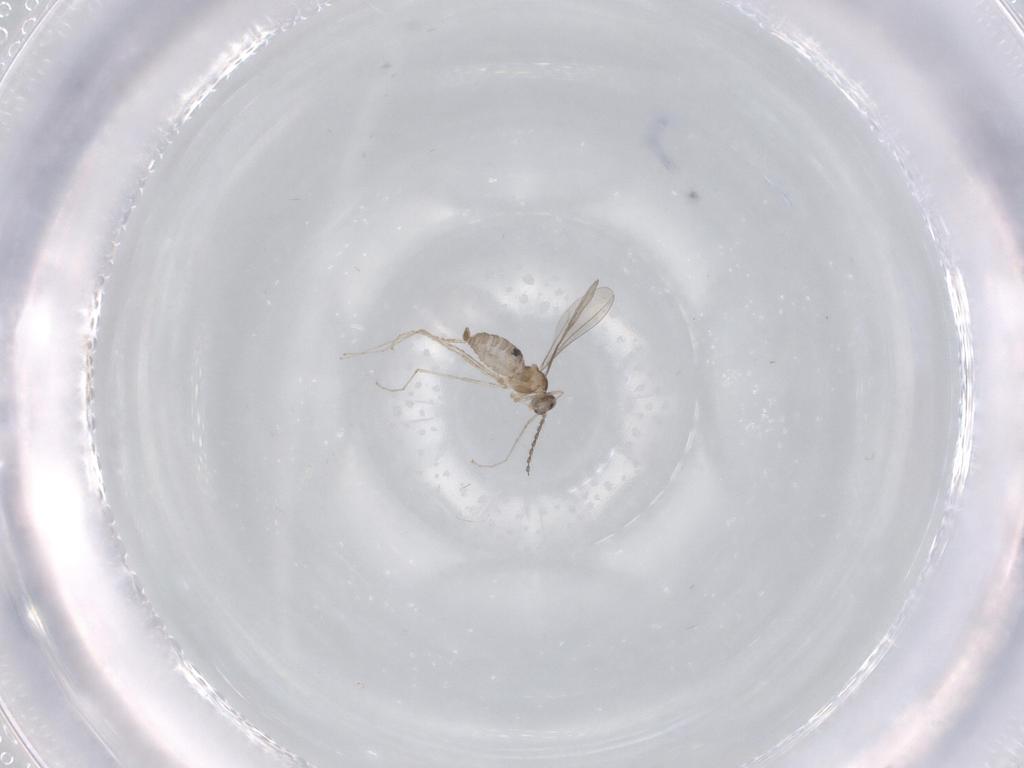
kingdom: Animalia
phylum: Arthropoda
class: Insecta
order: Diptera
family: Chironomidae
